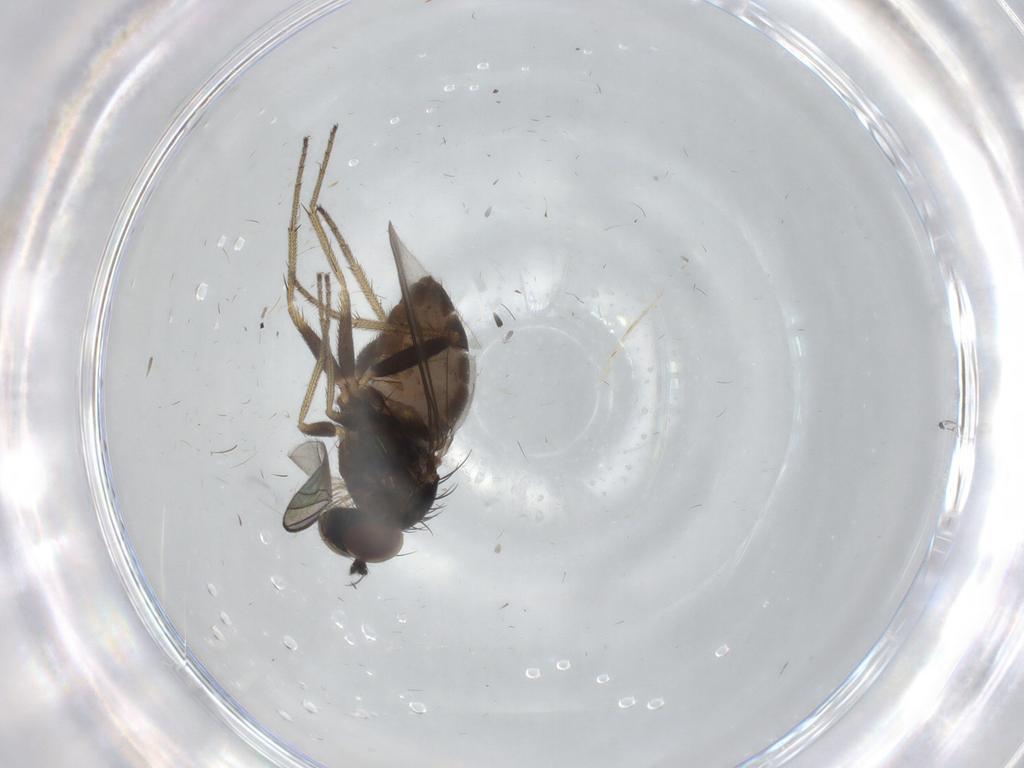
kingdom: Animalia
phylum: Arthropoda
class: Insecta
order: Diptera
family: Dolichopodidae
